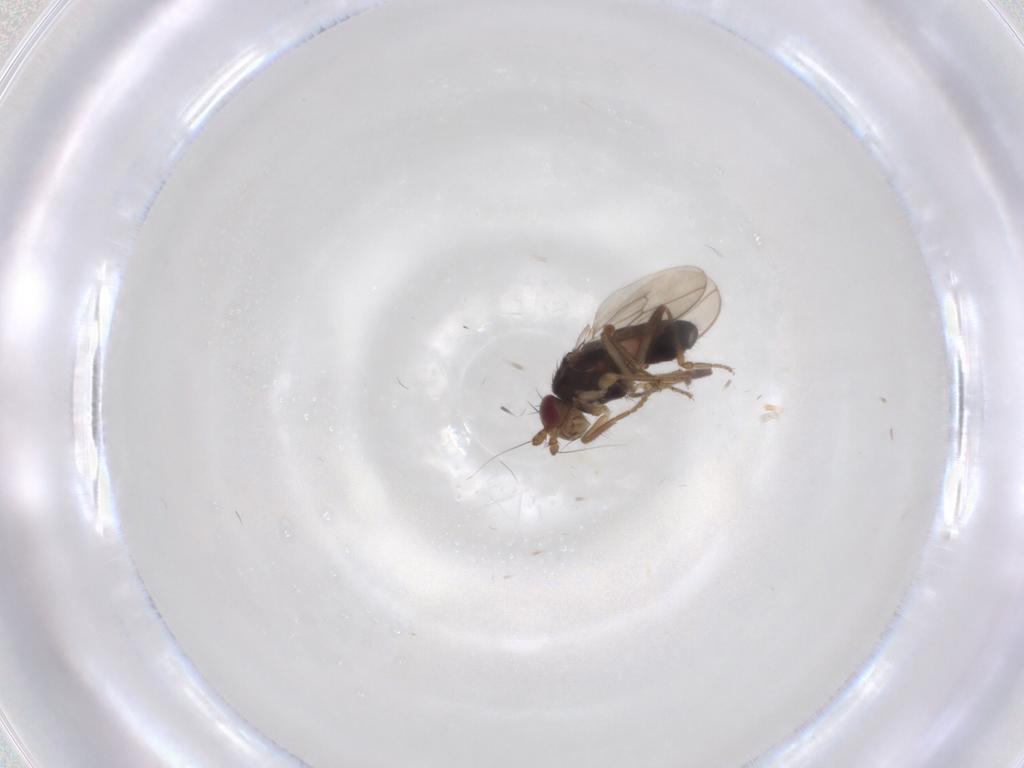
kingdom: Animalia
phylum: Arthropoda
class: Insecta
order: Diptera
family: Sphaeroceridae
